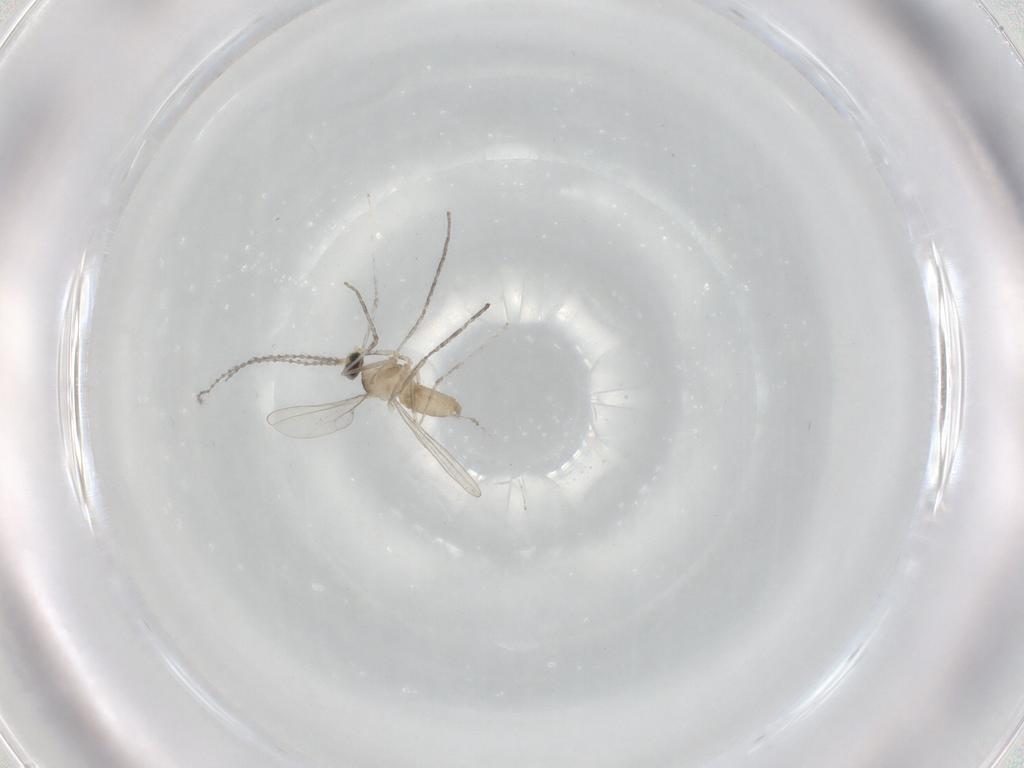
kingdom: Animalia
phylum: Arthropoda
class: Insecta
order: Diptera
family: Cecidomyiidae
